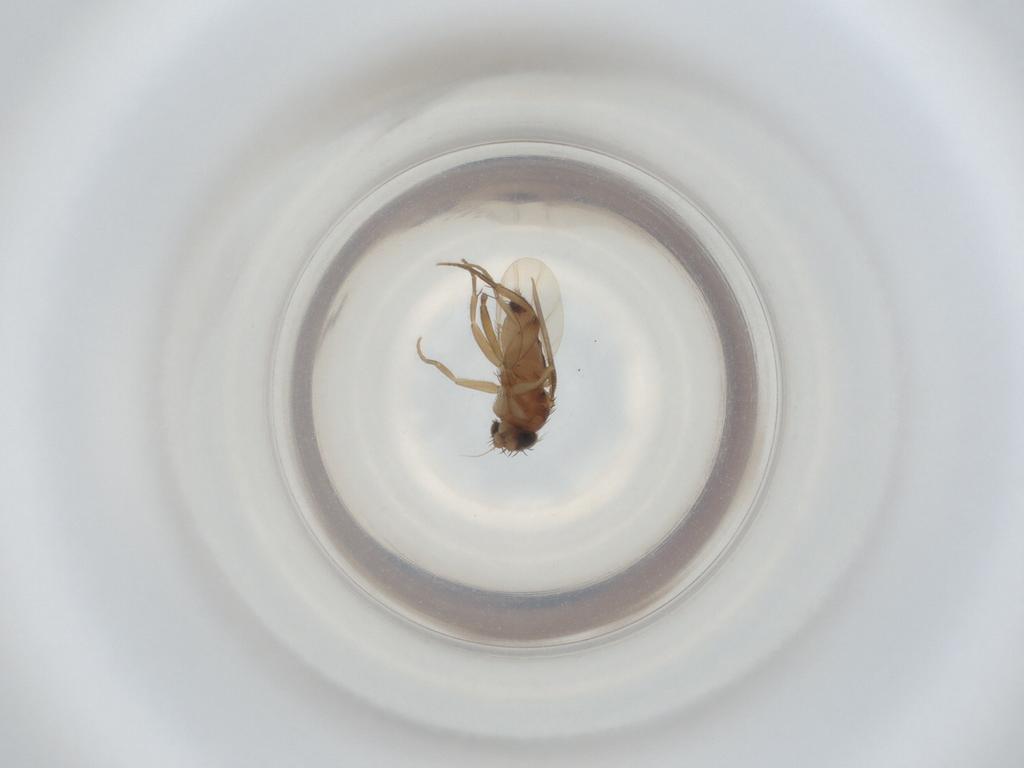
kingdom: Animalia
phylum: Arthropoda
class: Insecta
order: Diptera
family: Phoridae
